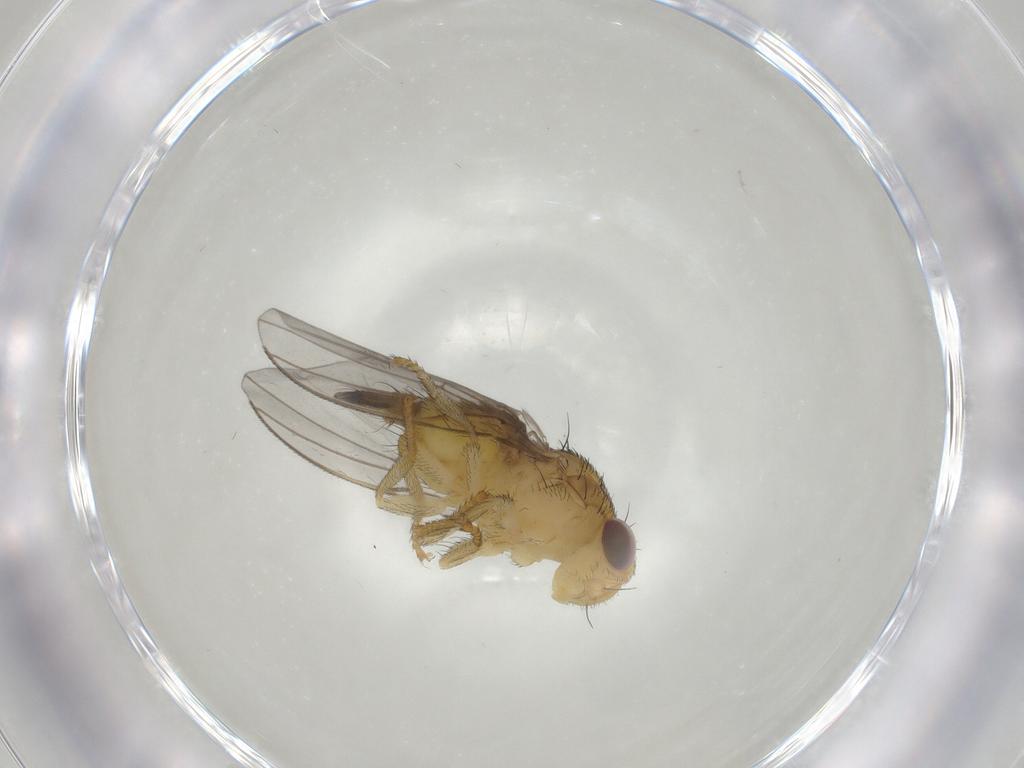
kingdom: Animalia
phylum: Arthropoda
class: Insecta
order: Diptera
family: Fergusoninidae
